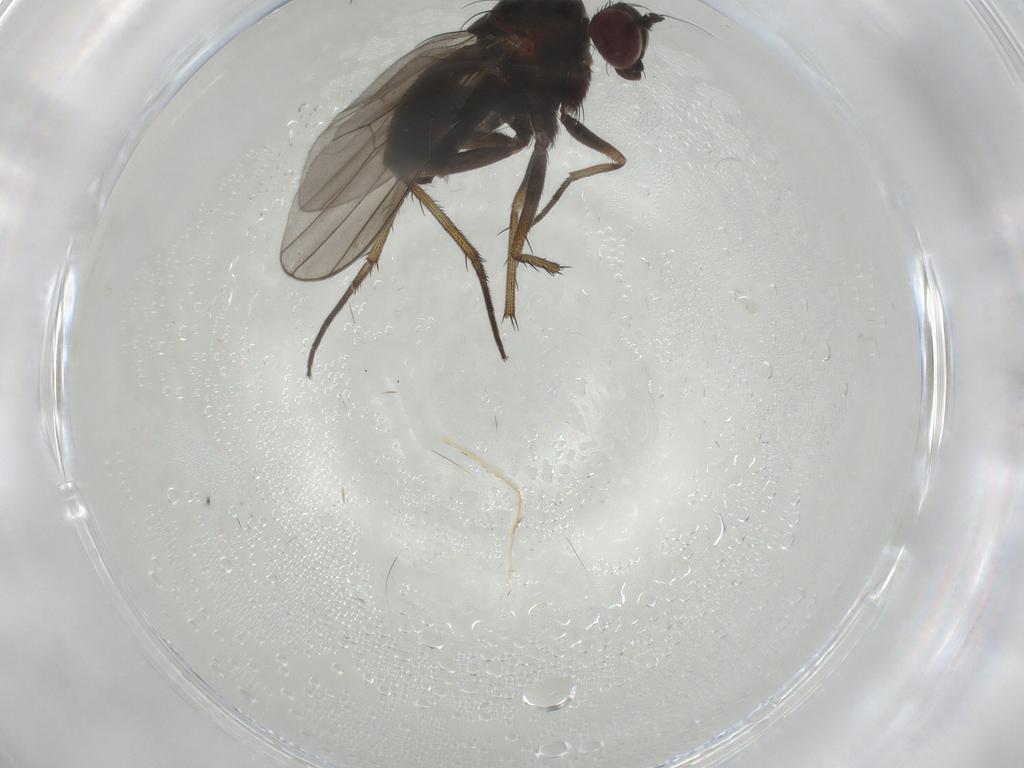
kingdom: Animalia
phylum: Arthropoda
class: Insecta
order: Diptera
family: Dolichopodidae
